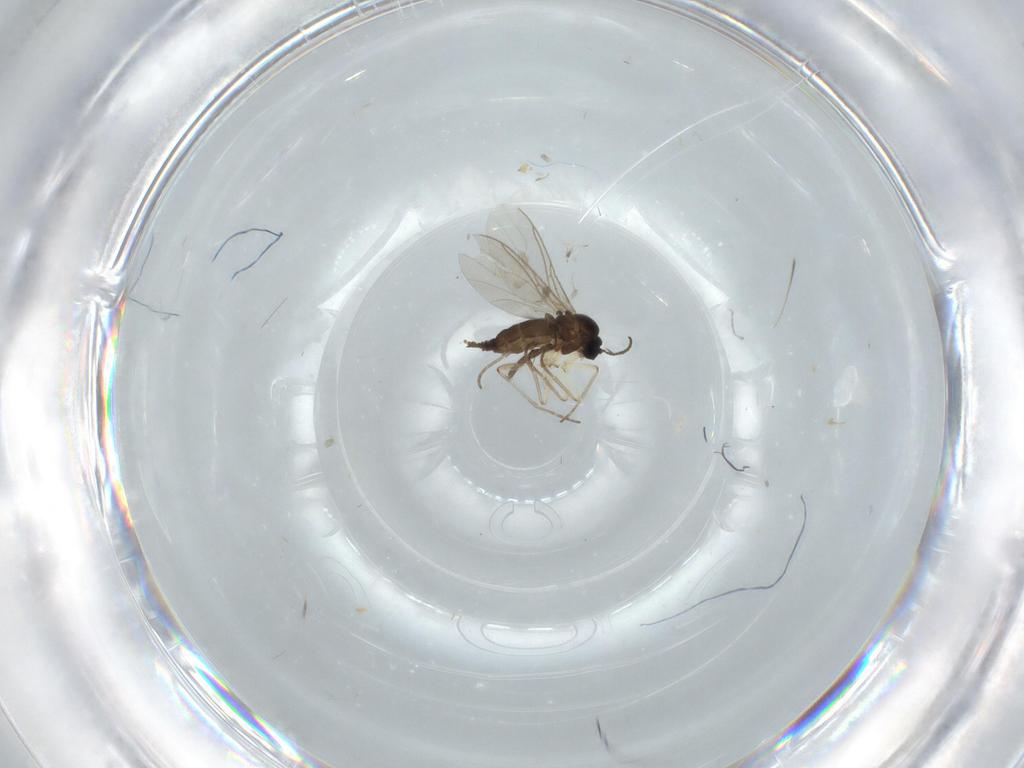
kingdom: Animalia
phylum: Arthropoda
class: Insecta
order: Diptera
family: Sciaridae
